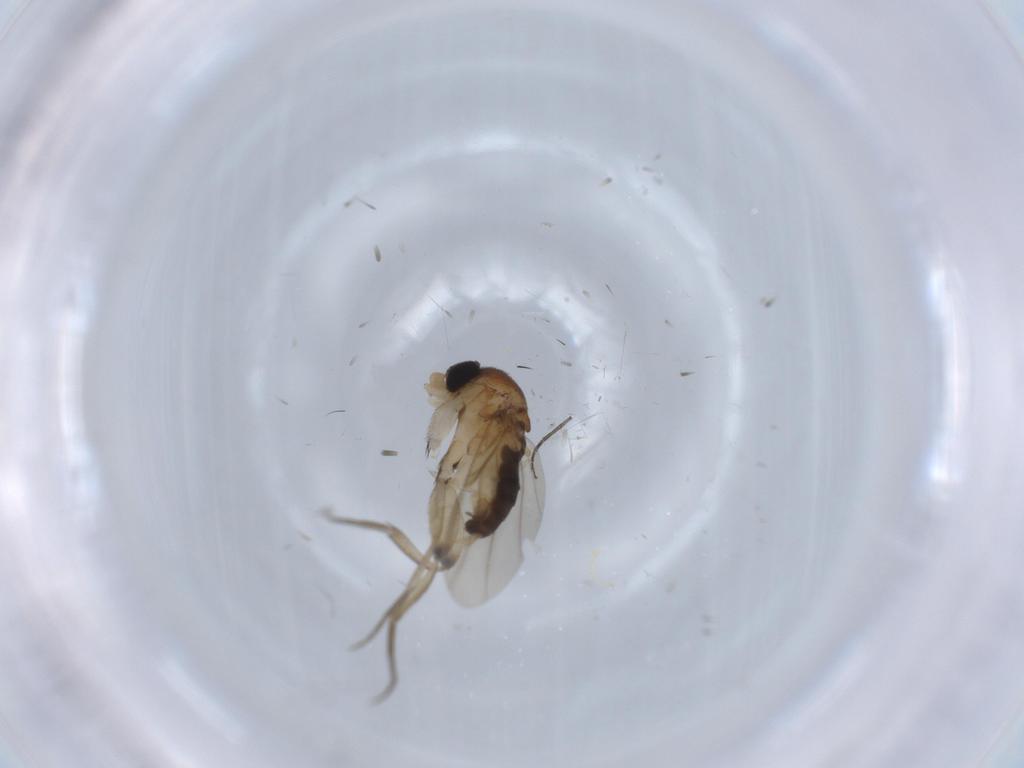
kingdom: Animalia
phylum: Arthropoda
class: Insecta
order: Diptera
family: Phoridae
